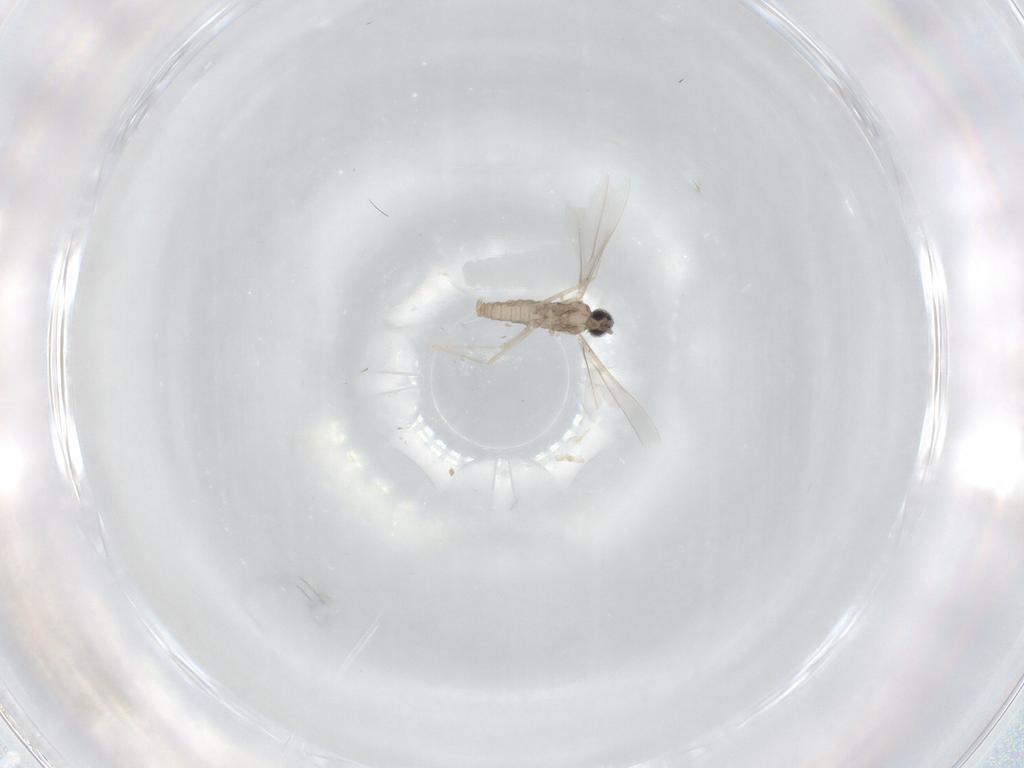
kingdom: Animalia
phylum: Arthropoda
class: Insecta
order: Diptera
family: Cecidomyiidae
